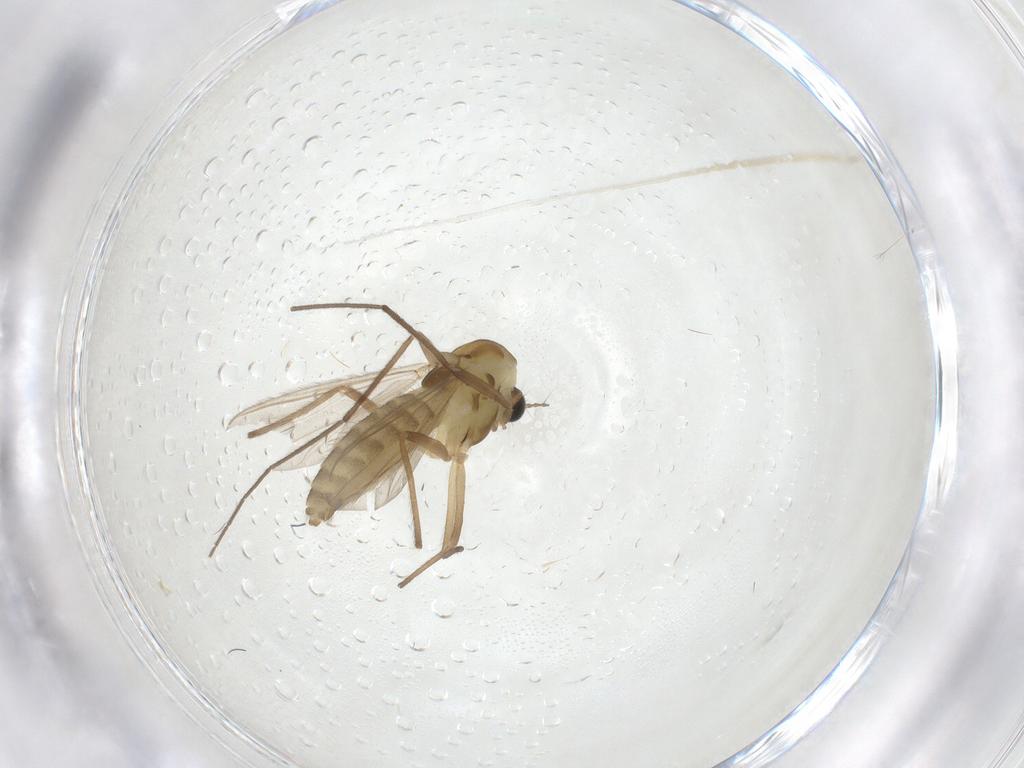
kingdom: Animalia
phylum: Arthropoda
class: Insecta
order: Diptera
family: Chironomidae
